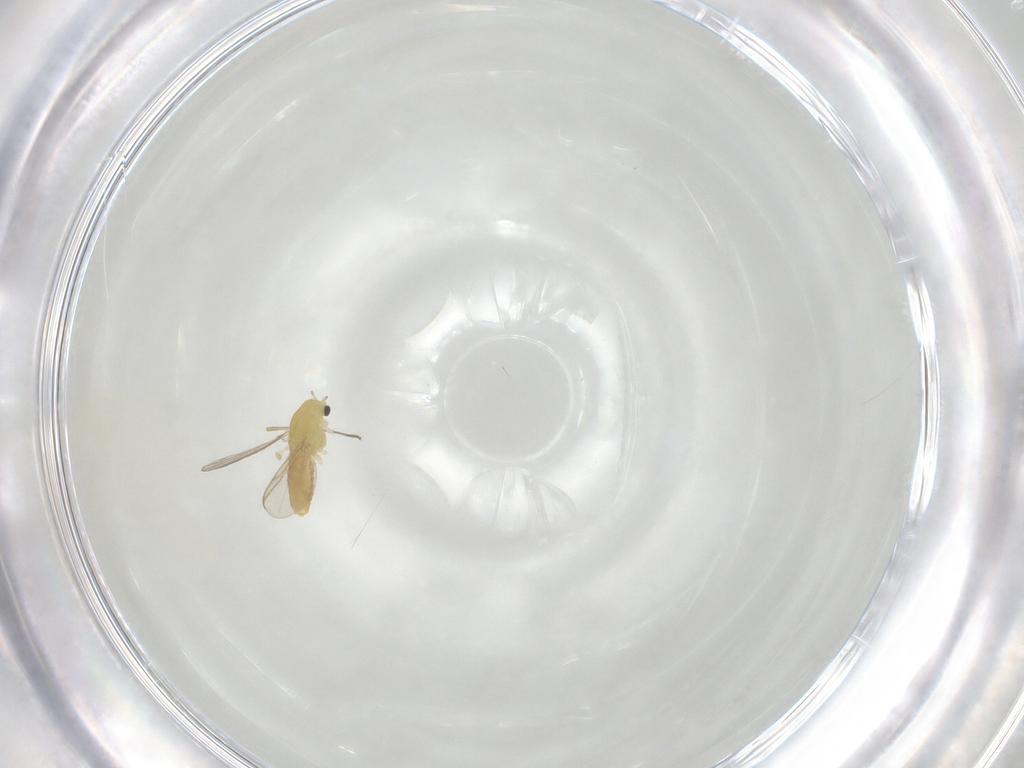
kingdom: Animalia
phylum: Arthropoda
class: Insecta
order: Diptera
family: Chironomidae
